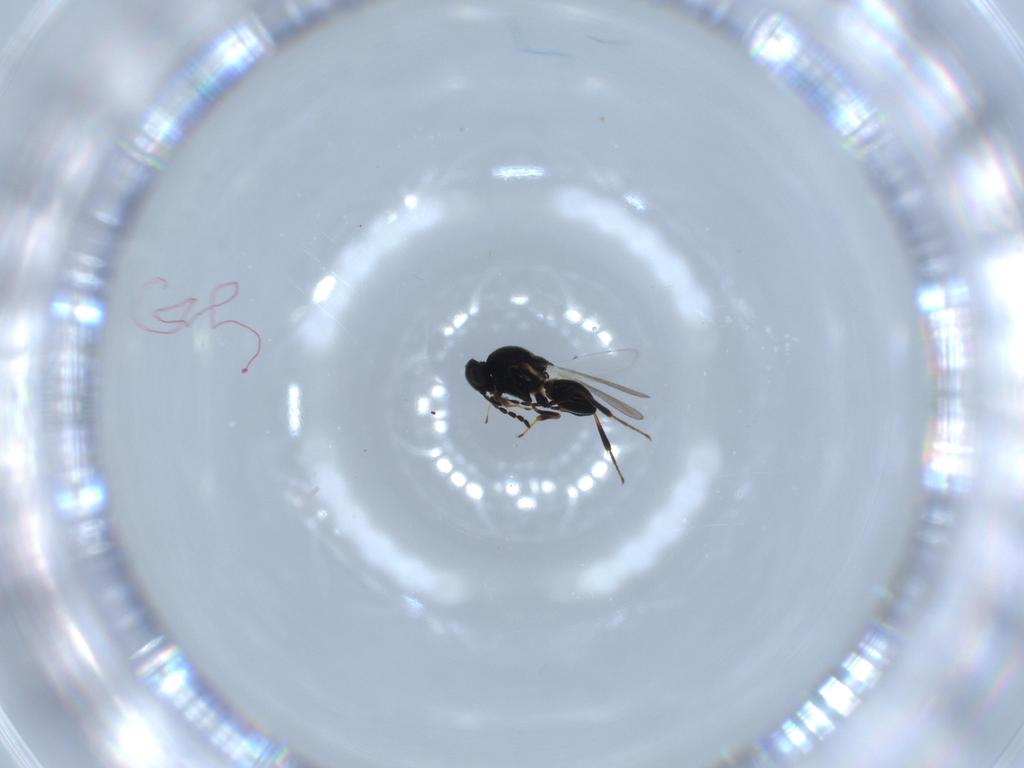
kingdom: Animalia
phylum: Arthropoda
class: Insecta
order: Hymenoptera
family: Platygastridae
